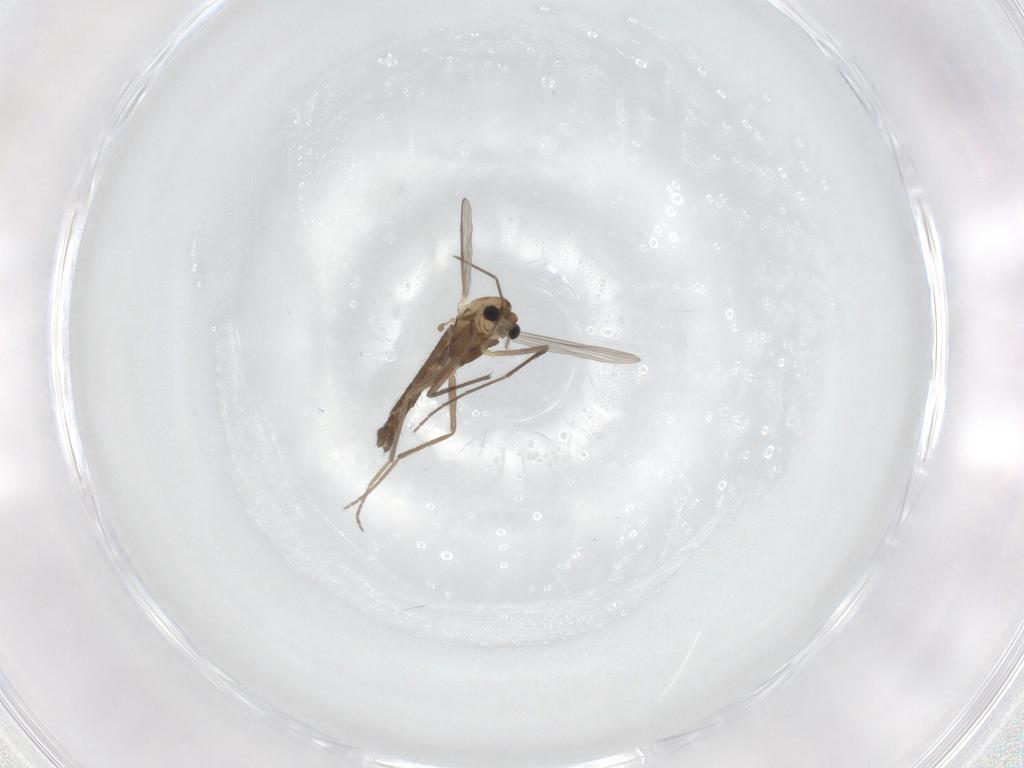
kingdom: Animalia
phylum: Arthropoda
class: Insecta
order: Diptera
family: Chironomidae
